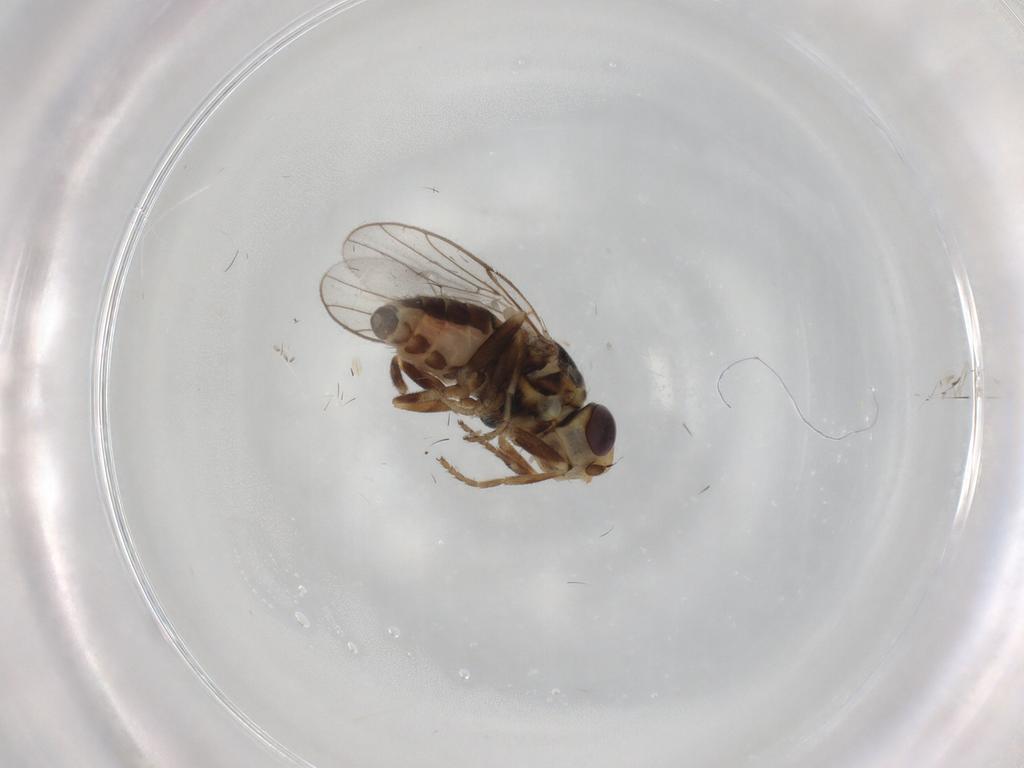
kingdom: Animalia
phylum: Arthropoda
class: Insecta
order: Diptera
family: Chloropidae
